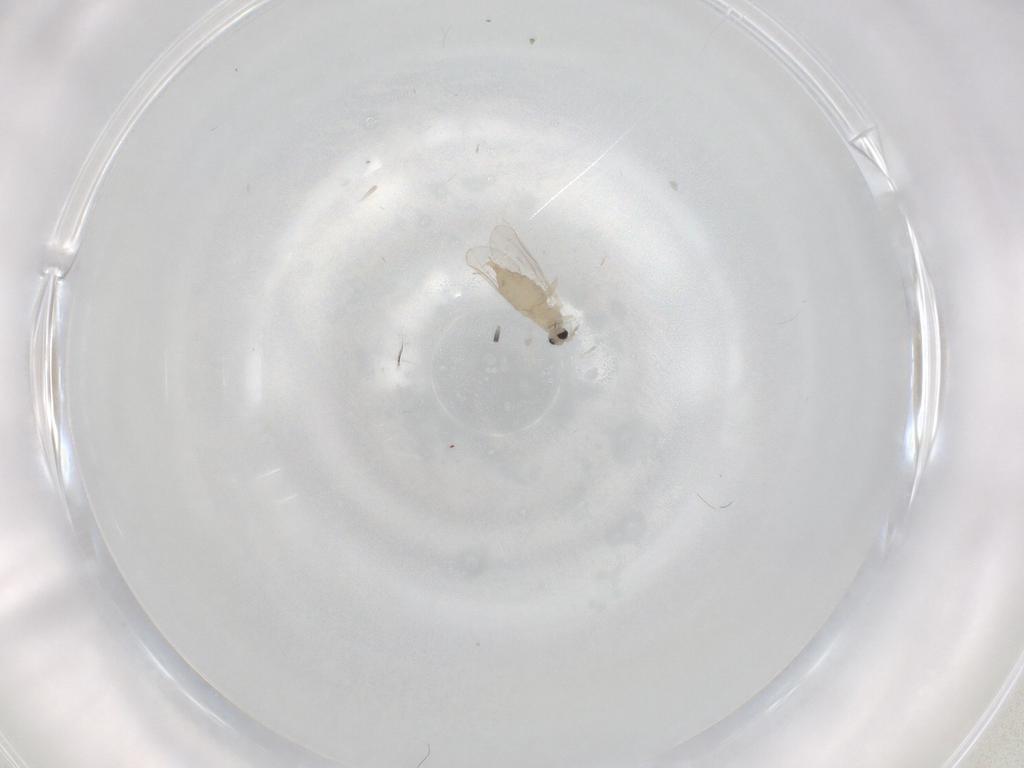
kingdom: Animalia
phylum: Arthropoda
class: Insecta
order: Diptera
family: Cecidomyiidae
